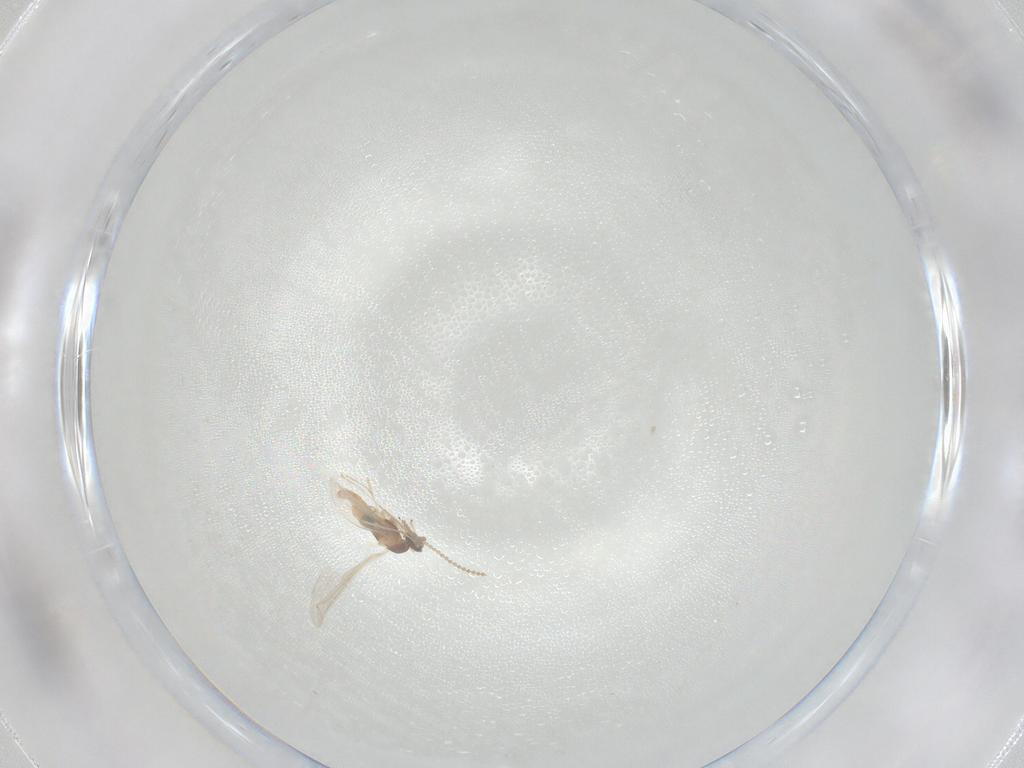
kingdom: Animalia
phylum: Arthropoda
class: Insecta
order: Diptera
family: Cecidomyiidae
